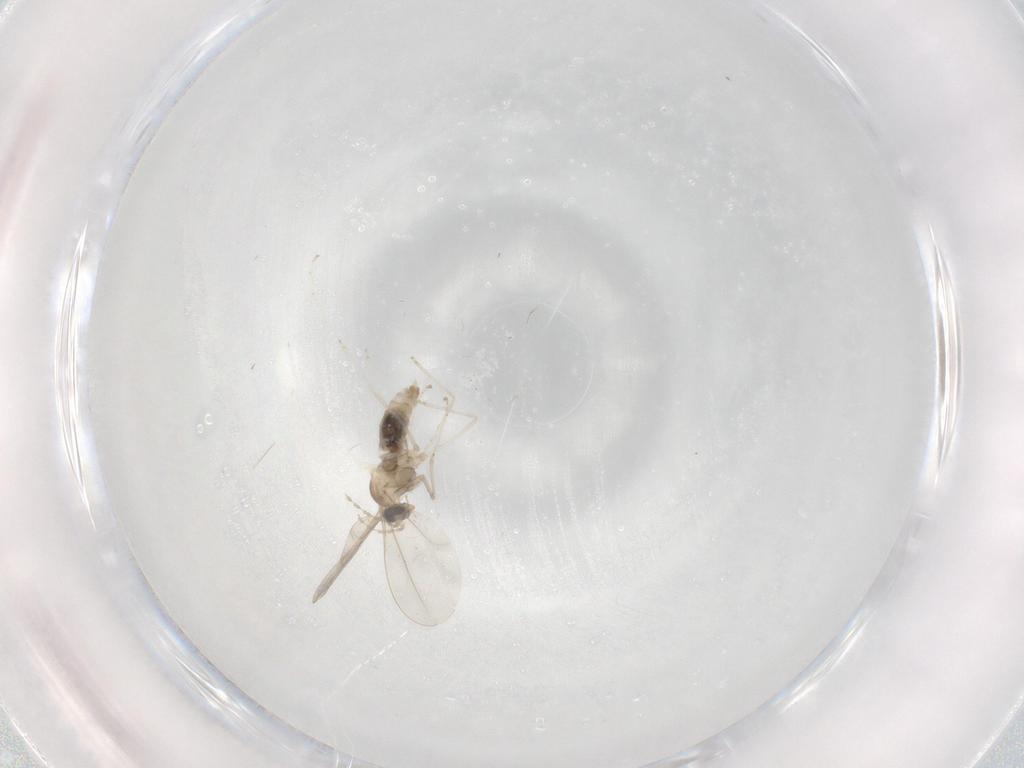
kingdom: Animalia
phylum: Arthropoda
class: Insecta
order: Diptera
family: Cecidomyiidae
